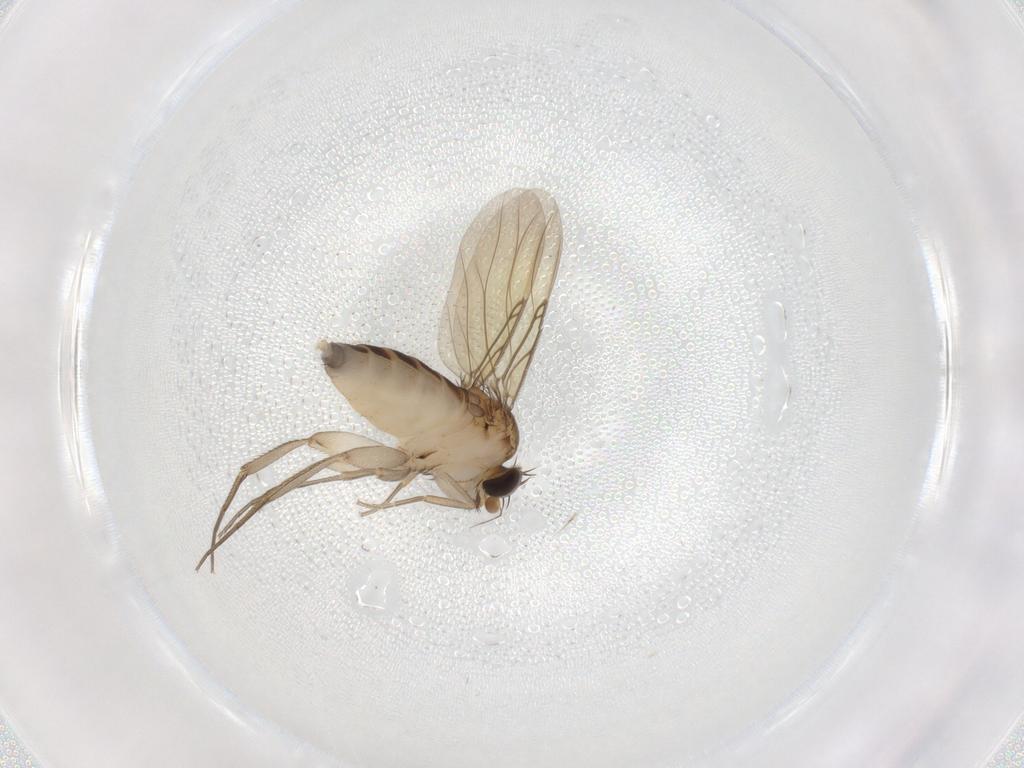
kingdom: Animalia
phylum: Arthropoda
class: Insecta
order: Diptera
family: Phoridae
